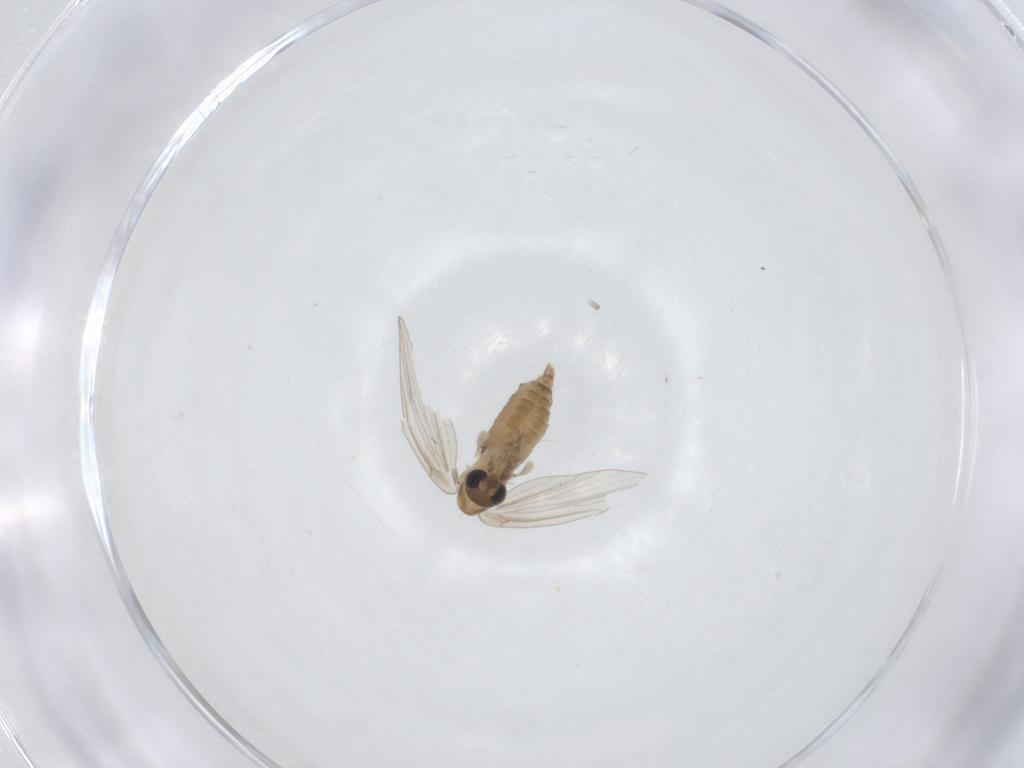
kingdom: Animalia
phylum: Arthropoda
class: Insecta
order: Diptera
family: Psychodidae
